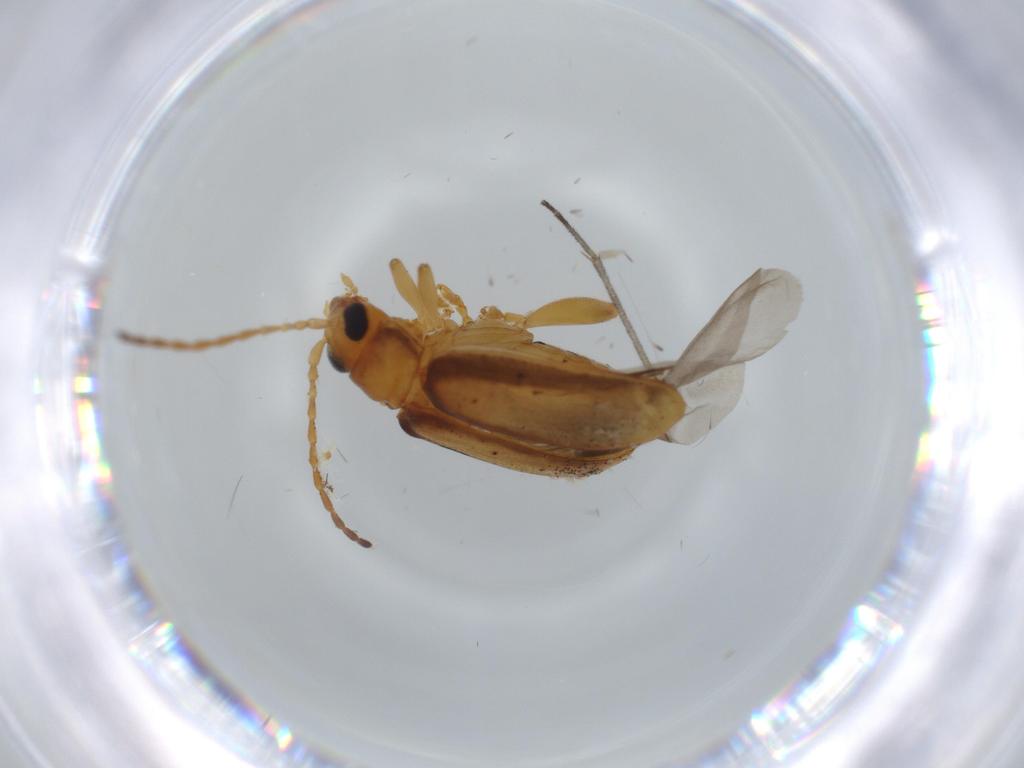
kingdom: Animalia
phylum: Arthropoda
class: Insecta
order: Coleoptera
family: Chrysomelidae
